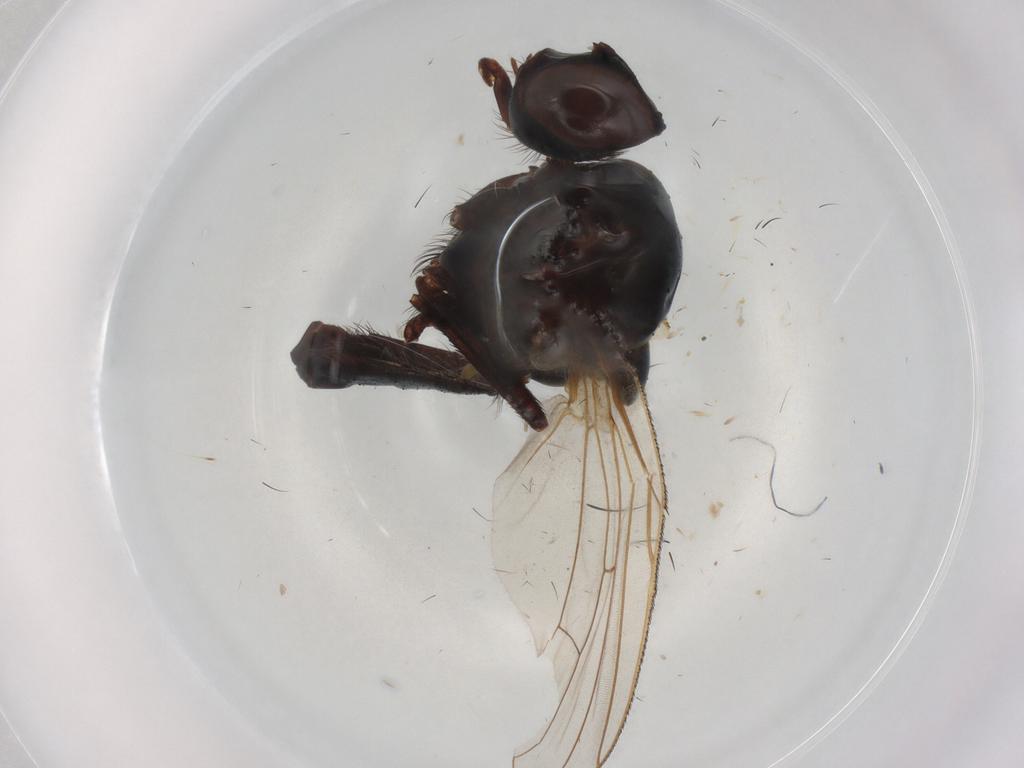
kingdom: Animalia
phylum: Arthropoda
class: Insecta
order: Diptera
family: Anthomyiidae
